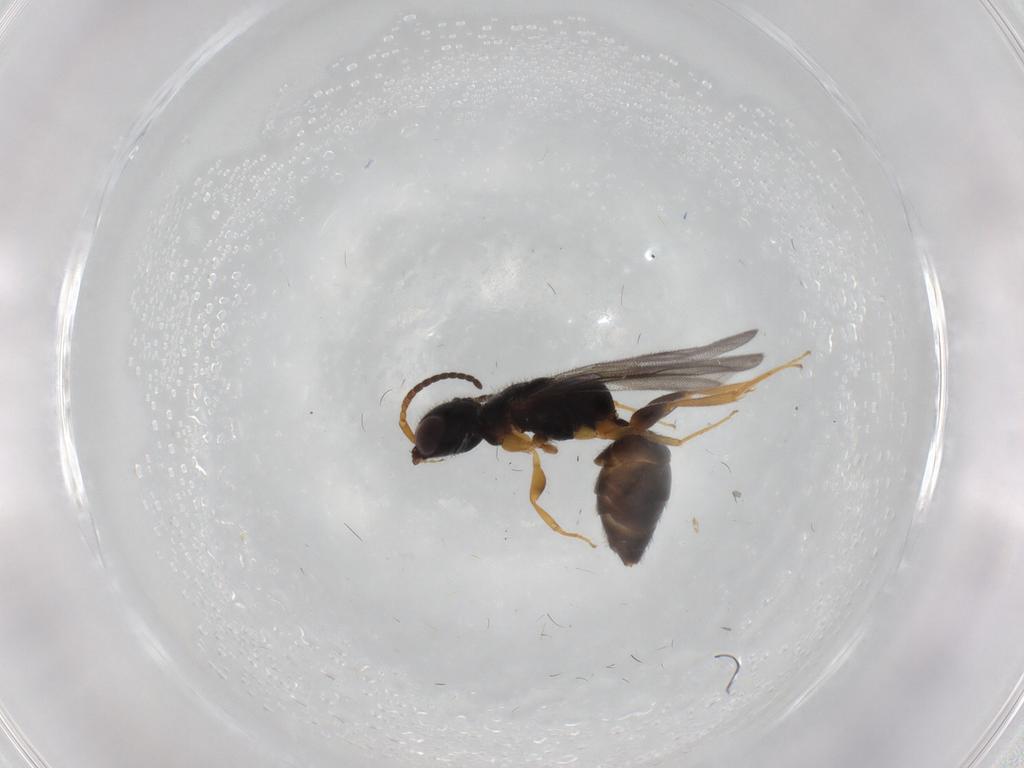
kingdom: Animalia
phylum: Arthropoda
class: Insecta
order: Hymenoptera
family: Bethylidae
